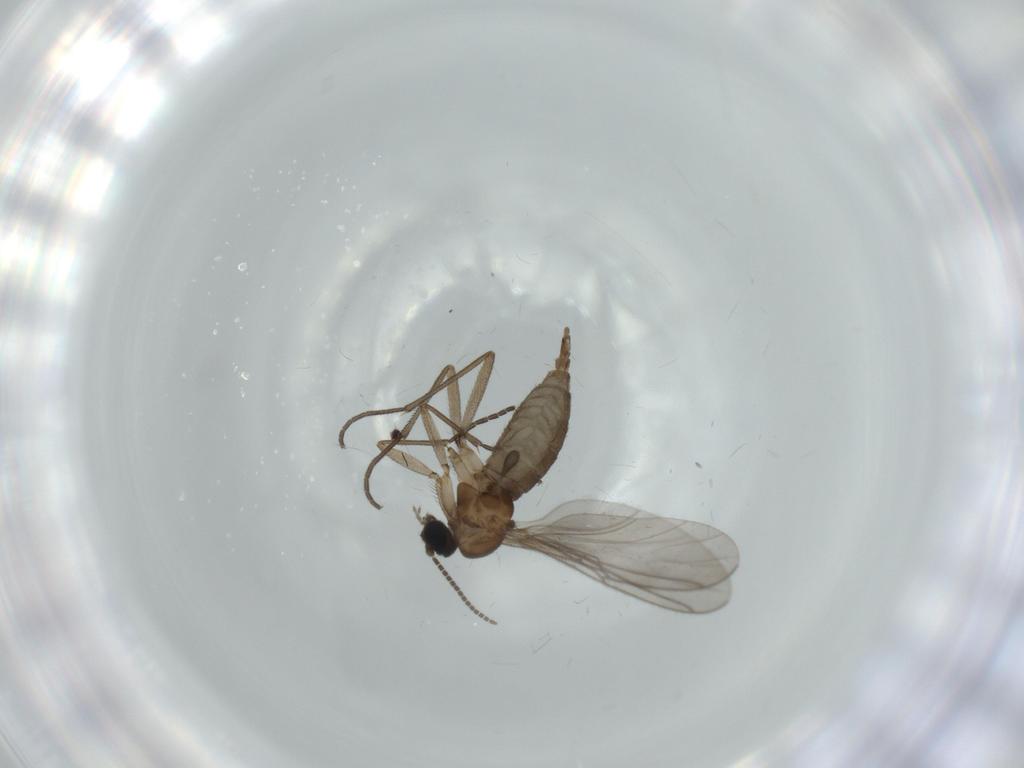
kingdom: Animalia
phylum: Arthropoda
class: Insecta
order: Diptera
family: Sciaridae
